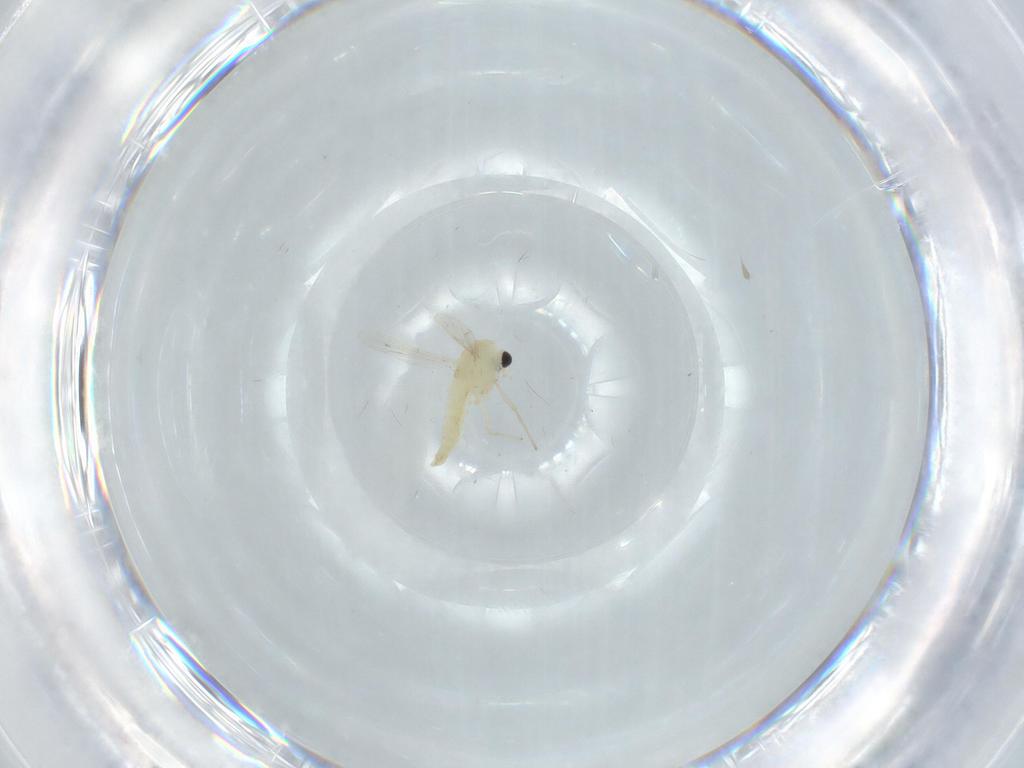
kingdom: Animalia
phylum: Arthropoda
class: Insecta
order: Diptera
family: Chironomidae
